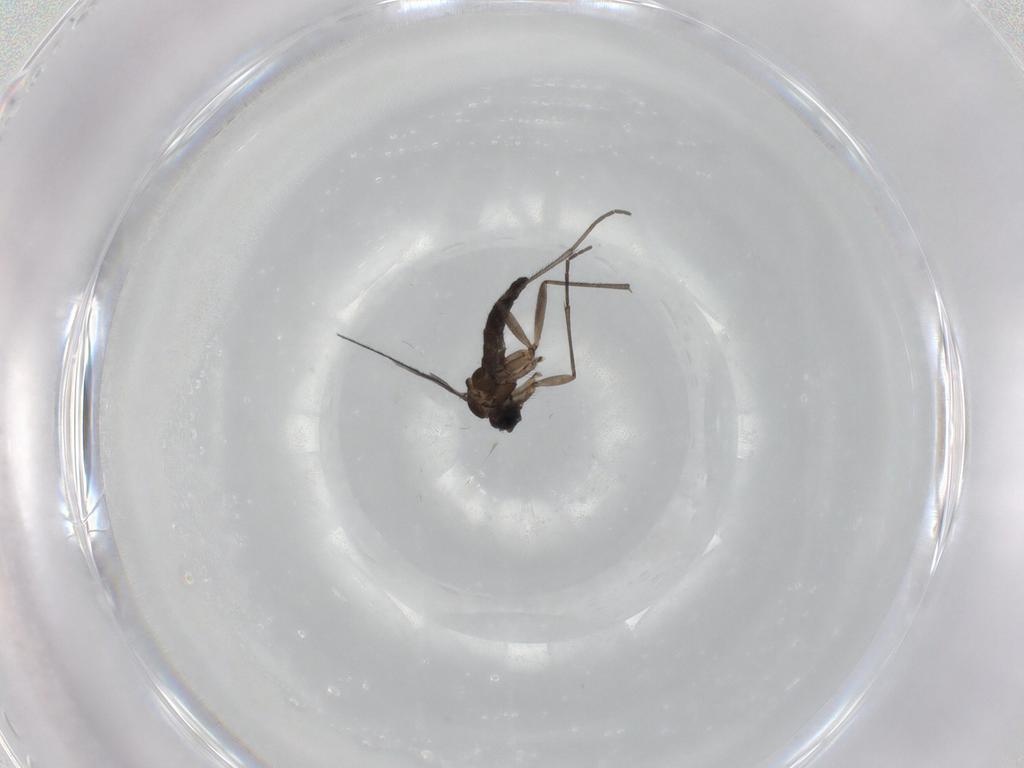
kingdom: Animalia
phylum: Arthropoda
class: Insecta
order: Diptera
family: Sciaridae
